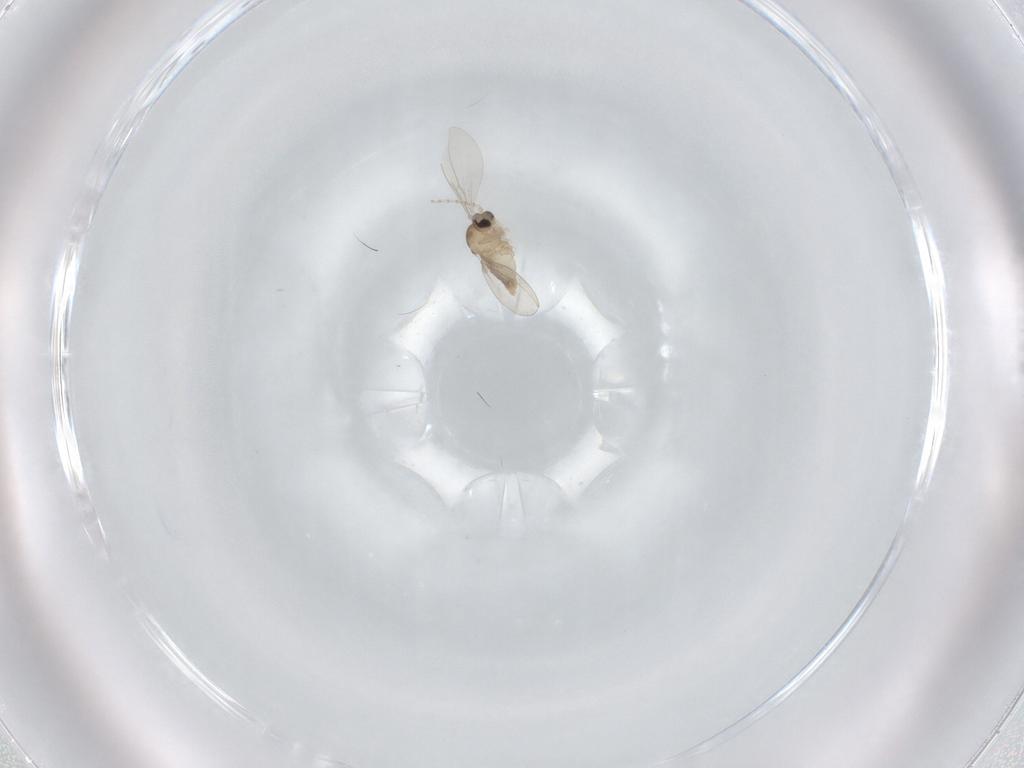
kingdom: Animalia
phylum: Arthropoda
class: Insecta
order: Diptera
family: Cecidomyiidae
